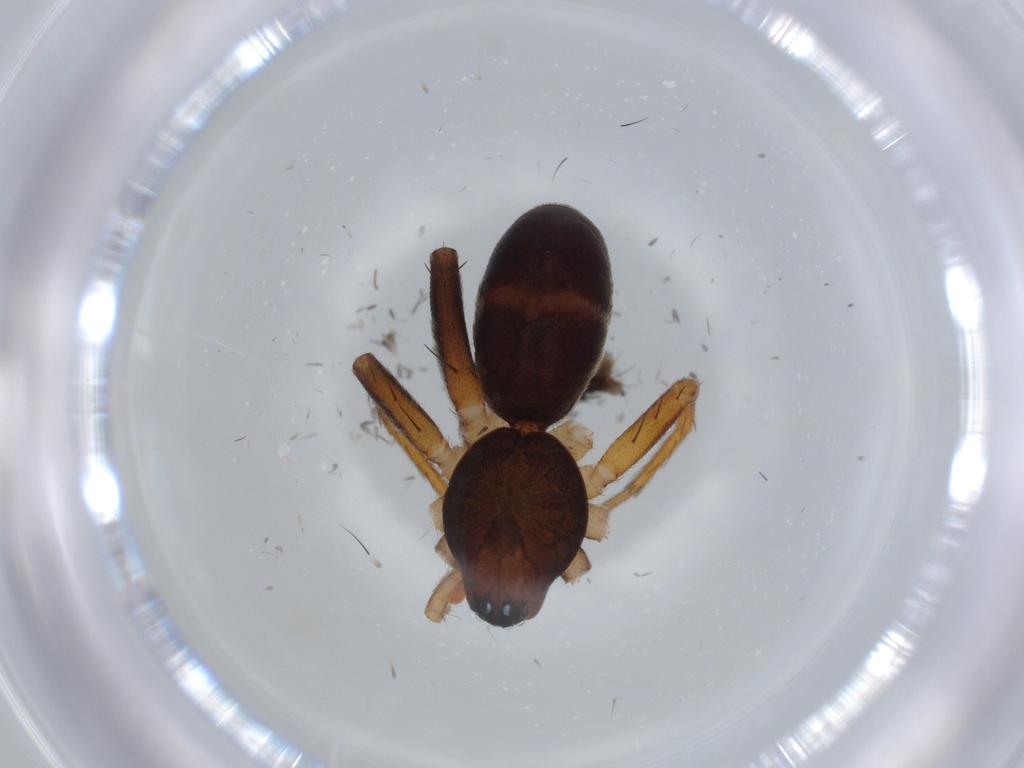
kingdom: Animalia
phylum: Arthropoda
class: Arachnida
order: Araneae
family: Corinnidae
